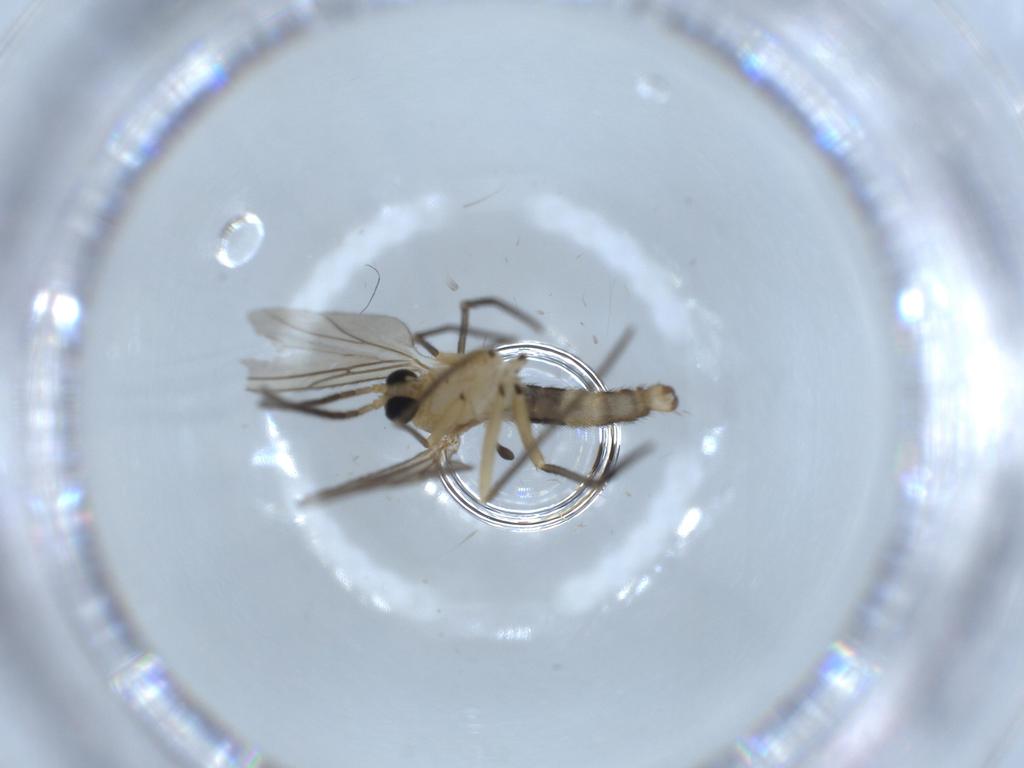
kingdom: Animalia
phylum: Arthropoda
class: Insecta
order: Diptera
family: Sciaridae
